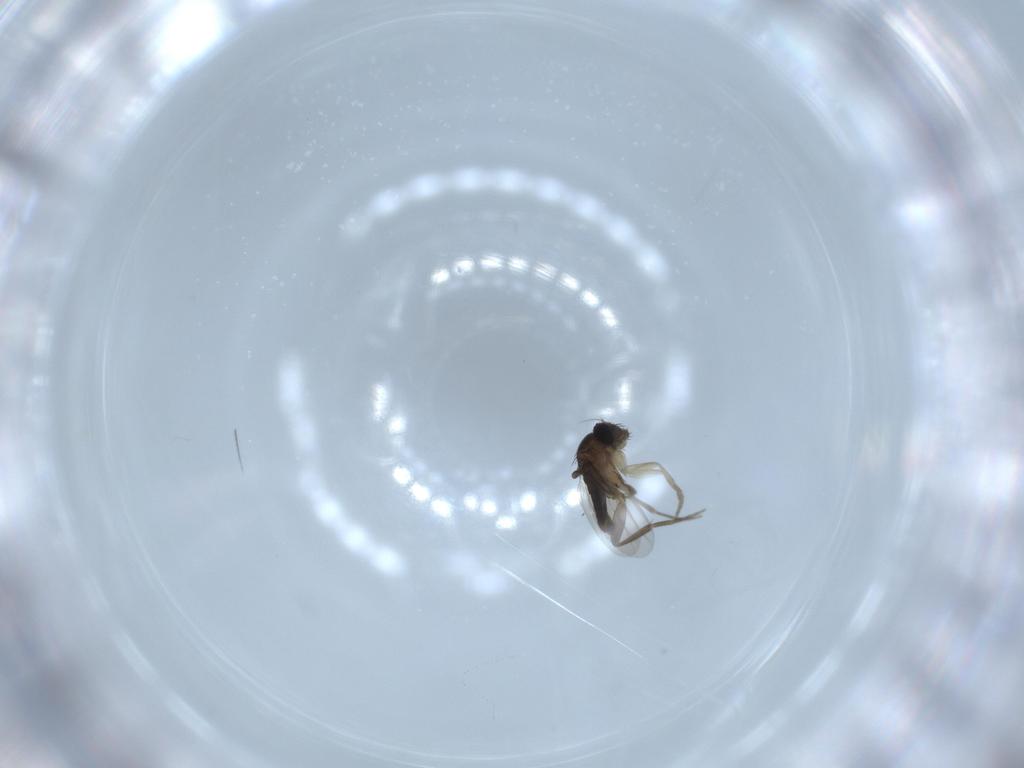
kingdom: Animalia
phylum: Arthropoda
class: Insecta
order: Diptera
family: Phoridae
